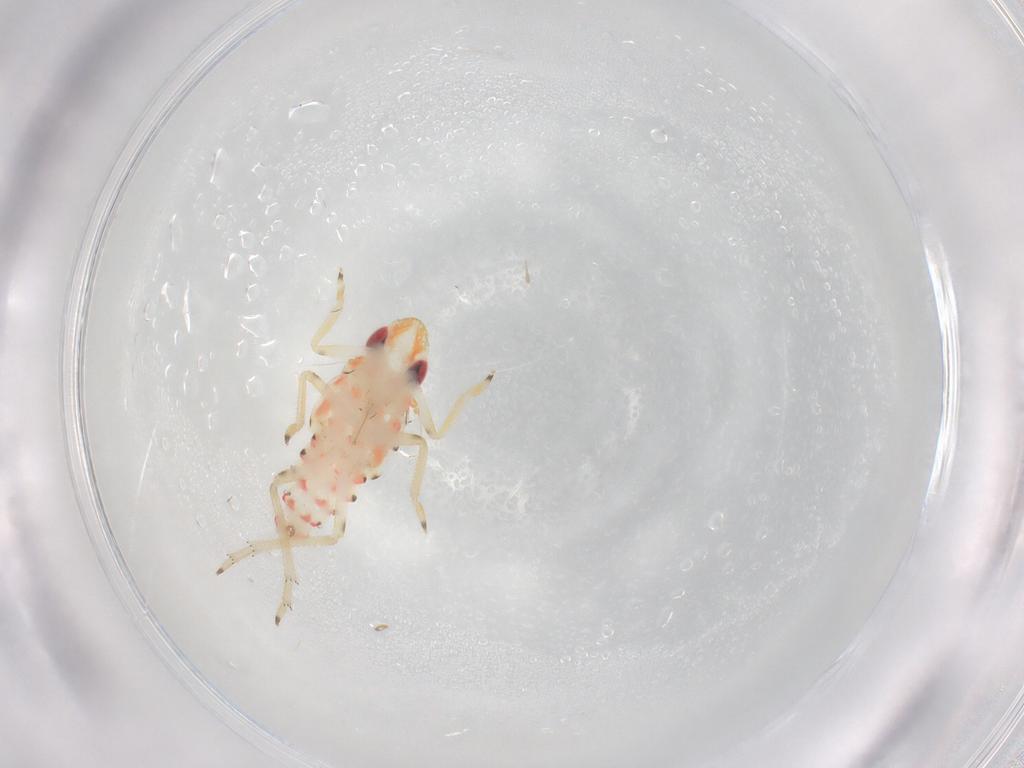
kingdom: Animalia
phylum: Arthropoda
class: Insecta
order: Hemiptera
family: Tropiduchidae
